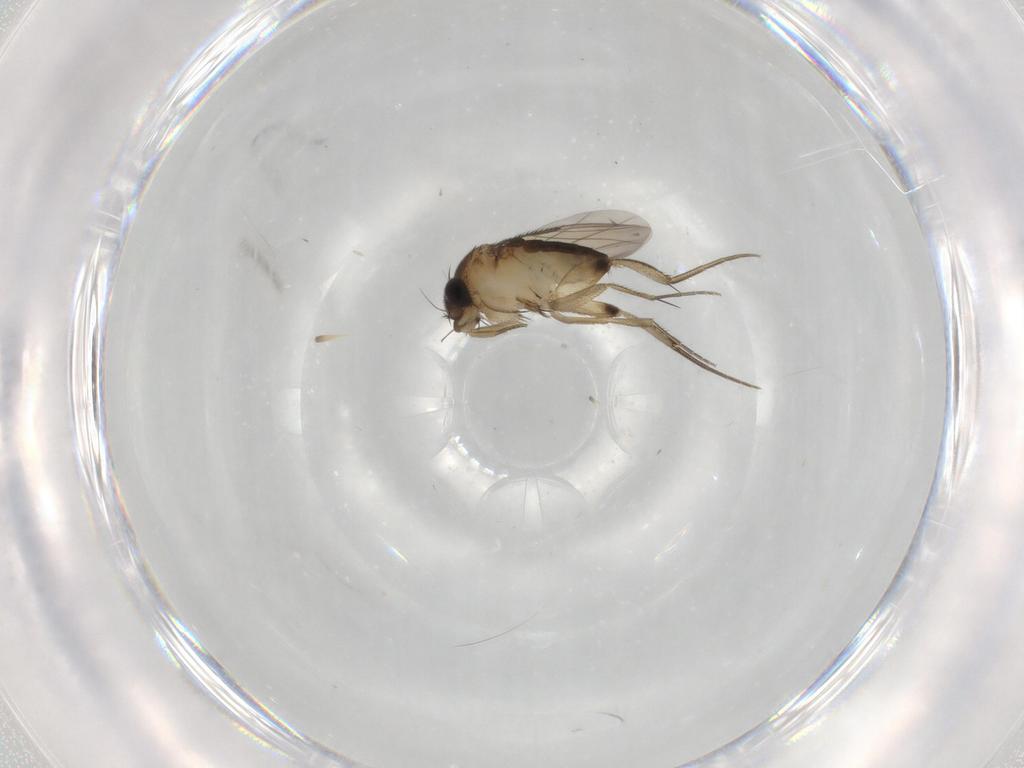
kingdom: Animalia
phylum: Arthropoda
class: Insecta
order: Diptera
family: Phoridae
